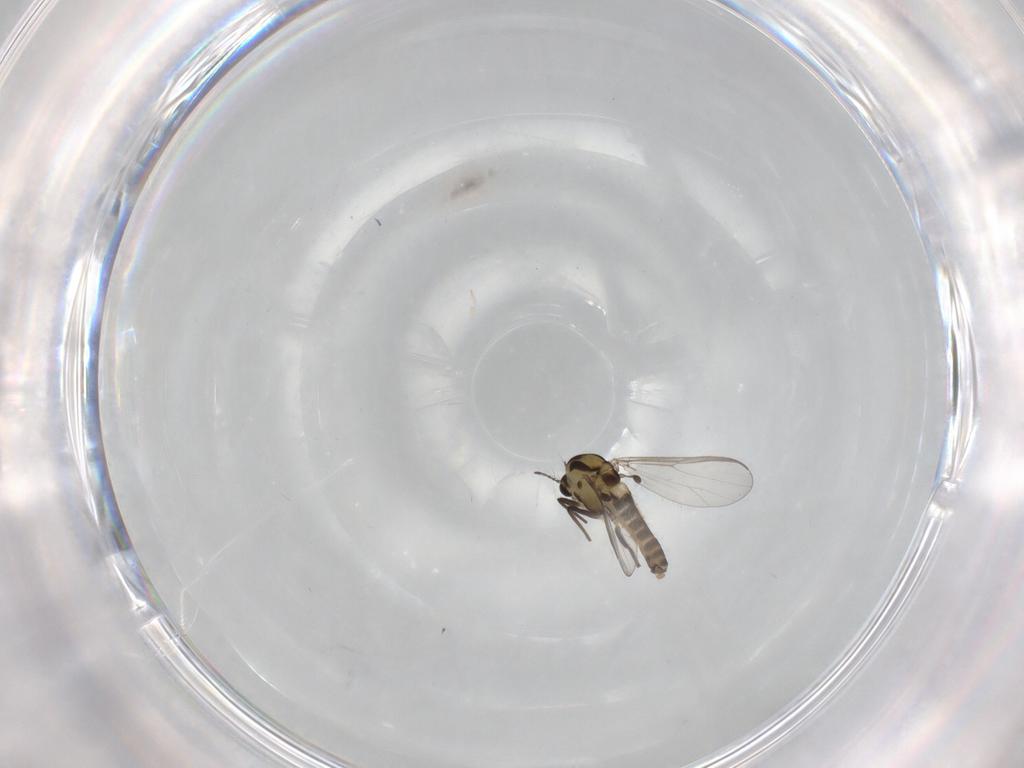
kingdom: Animalia
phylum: Arthropoda
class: Insecta
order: Diptera
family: Chironomidae
